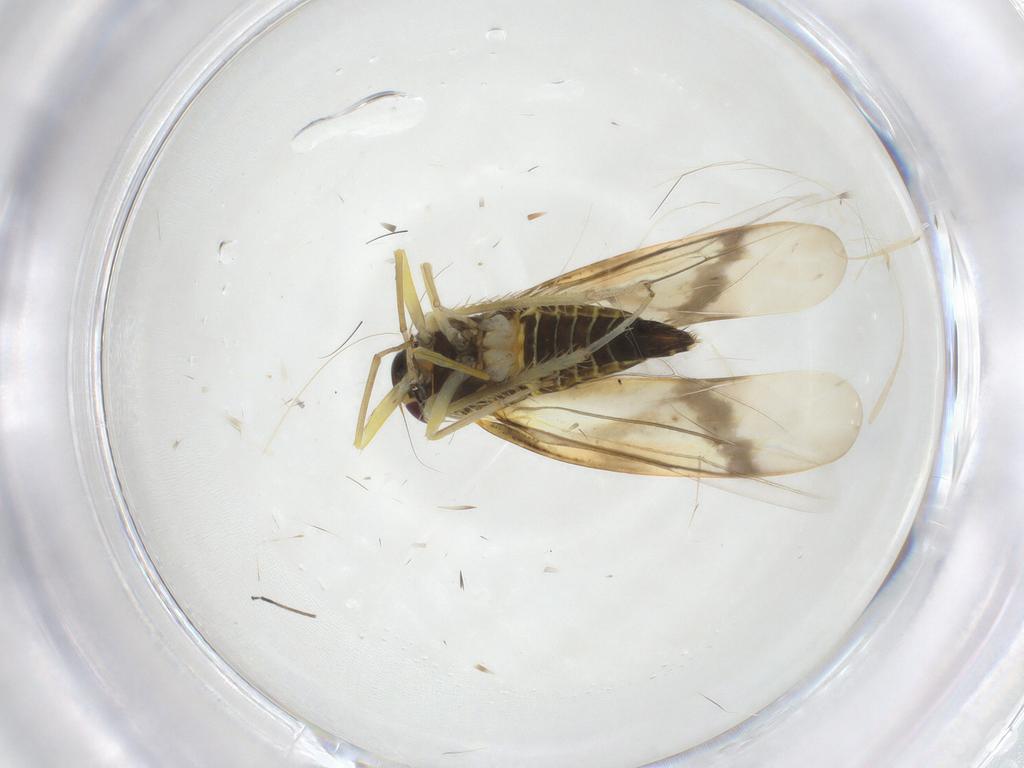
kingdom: Animalia
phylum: Arthropoda
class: Insecta
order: Hemiptera
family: Cicadellidae
